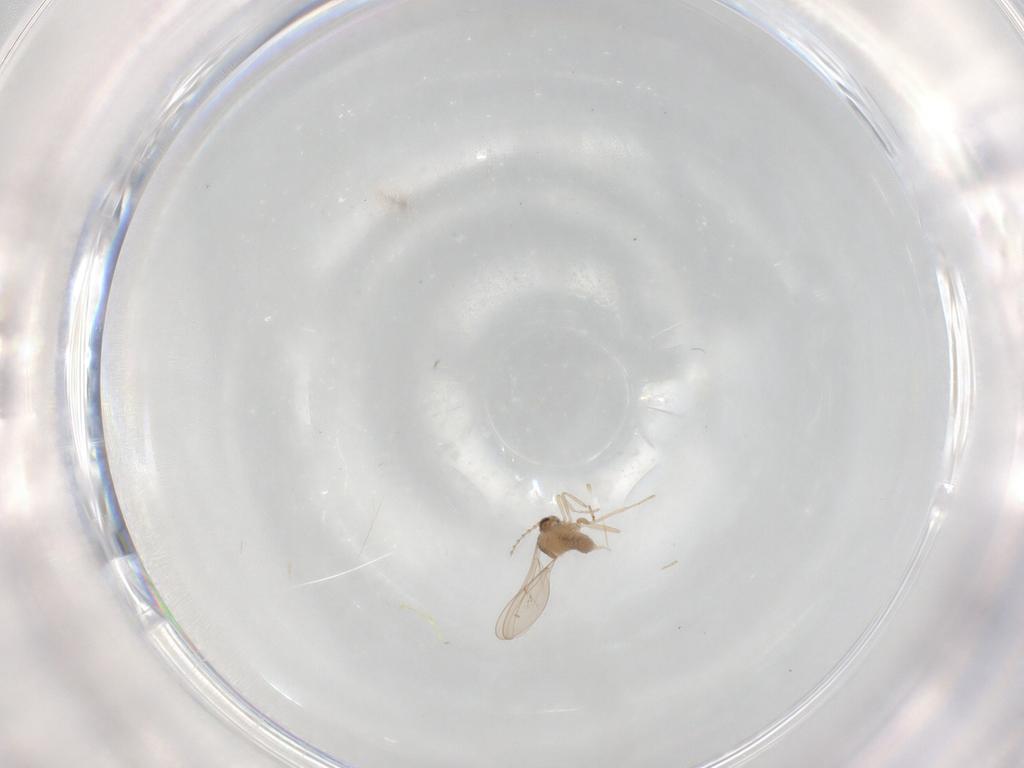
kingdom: Animalia
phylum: Arthropoda
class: Insecta
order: Diptera
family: Cecidomyiidae
